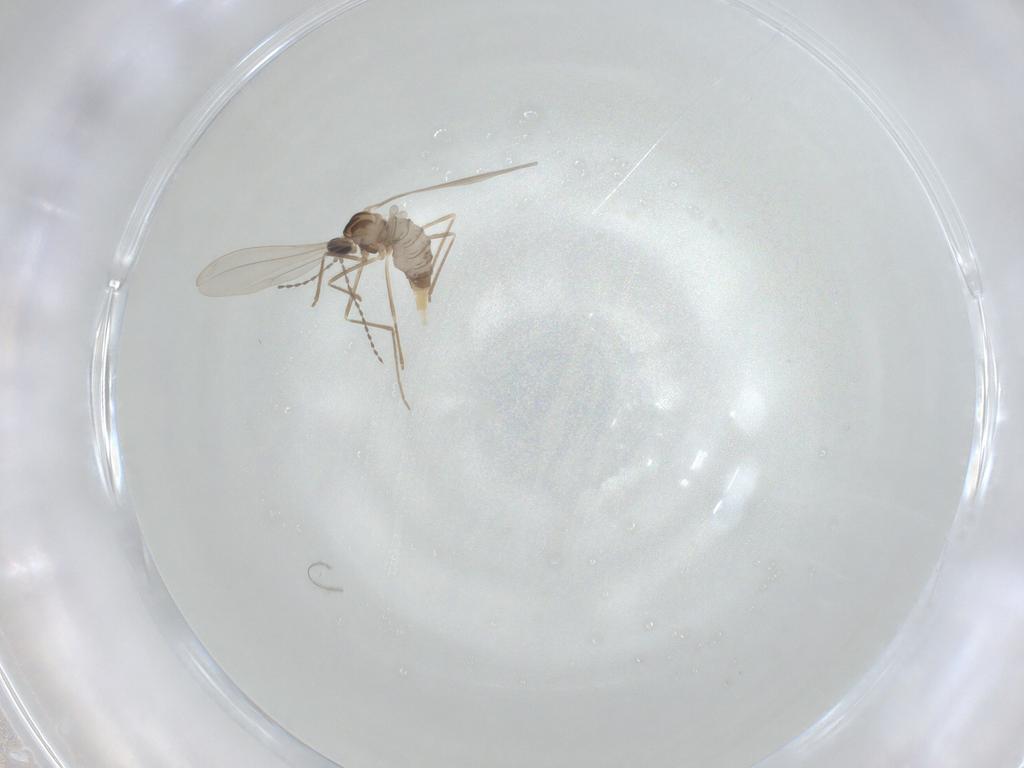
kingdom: Animalia
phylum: Arthropoda
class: Insecta
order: Diptera
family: Cecidomyiidae
